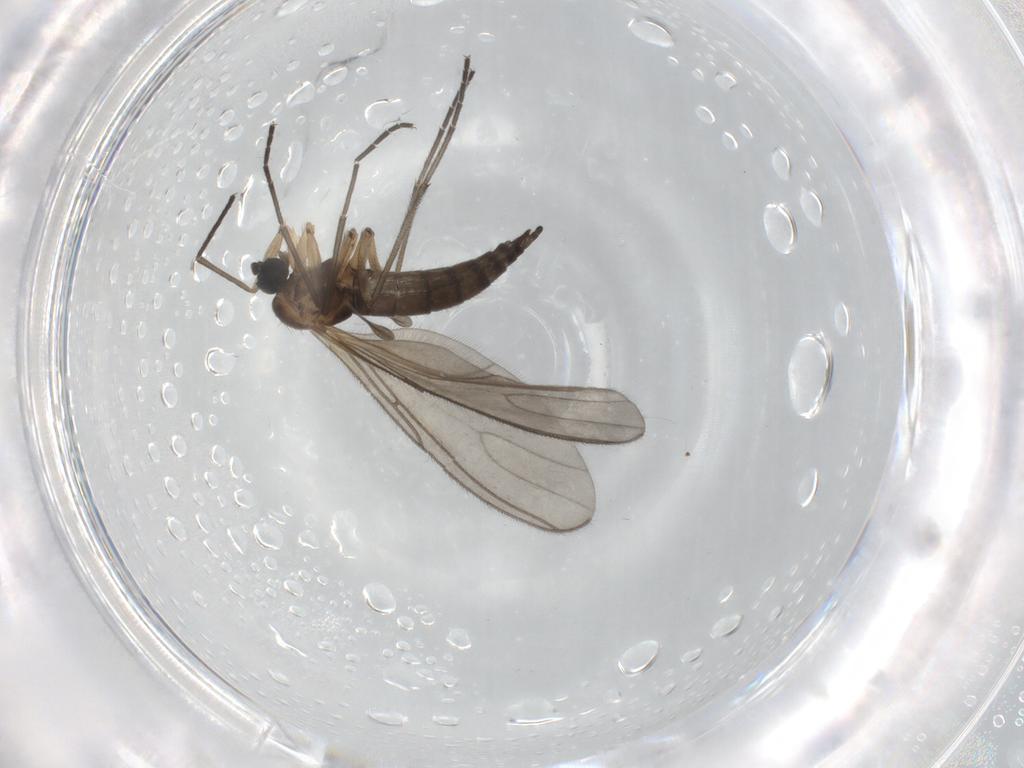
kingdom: Animalia
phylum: Arthropoda
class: Insecta
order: Diptera
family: Sciaridae
